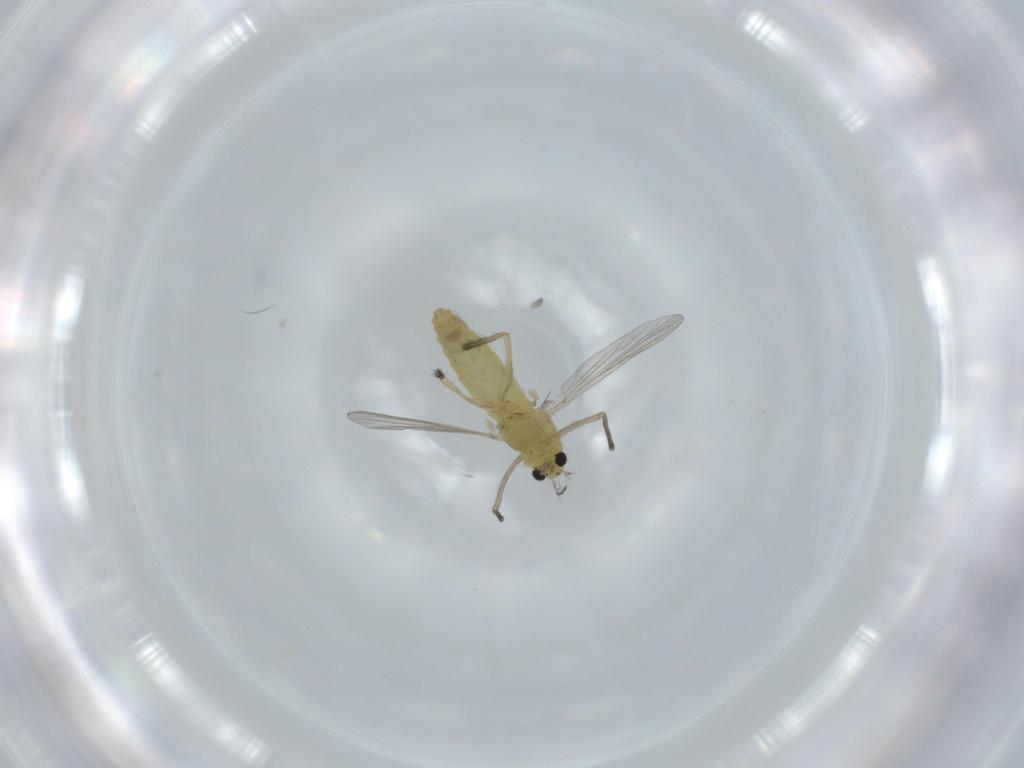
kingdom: Animalia
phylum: Arthropoda
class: Insecta
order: Diptera
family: Chironomidae
